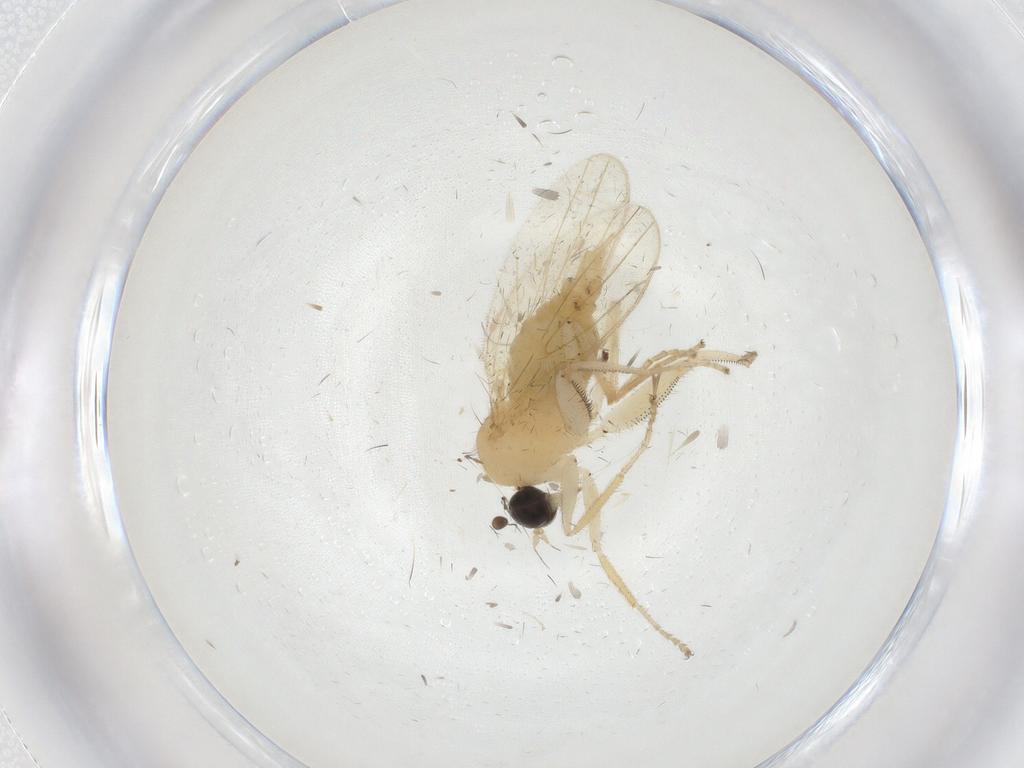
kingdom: Animalia
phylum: Arthropoda
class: Insecta
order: Diptera
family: Hybotidae
